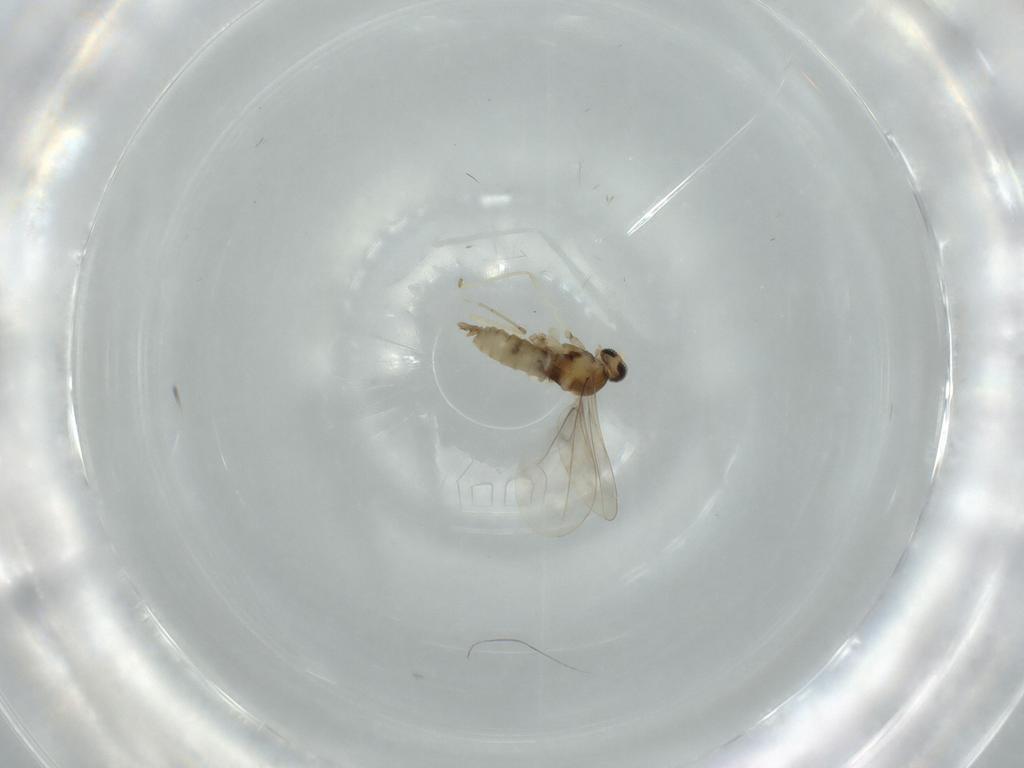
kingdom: Animalia
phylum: Arthropoda
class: Insecta
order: Diptera
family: Cecidomyiidae
